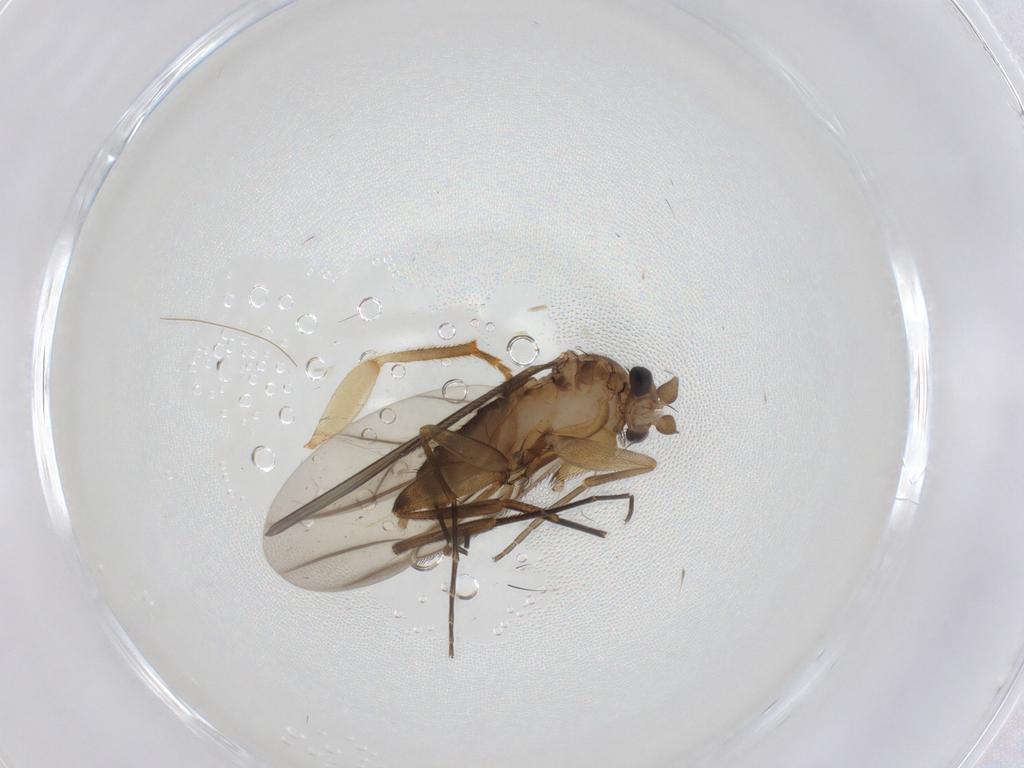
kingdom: Animalia
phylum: Arthropoda
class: Insecta
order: Diptera
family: Phoridae
